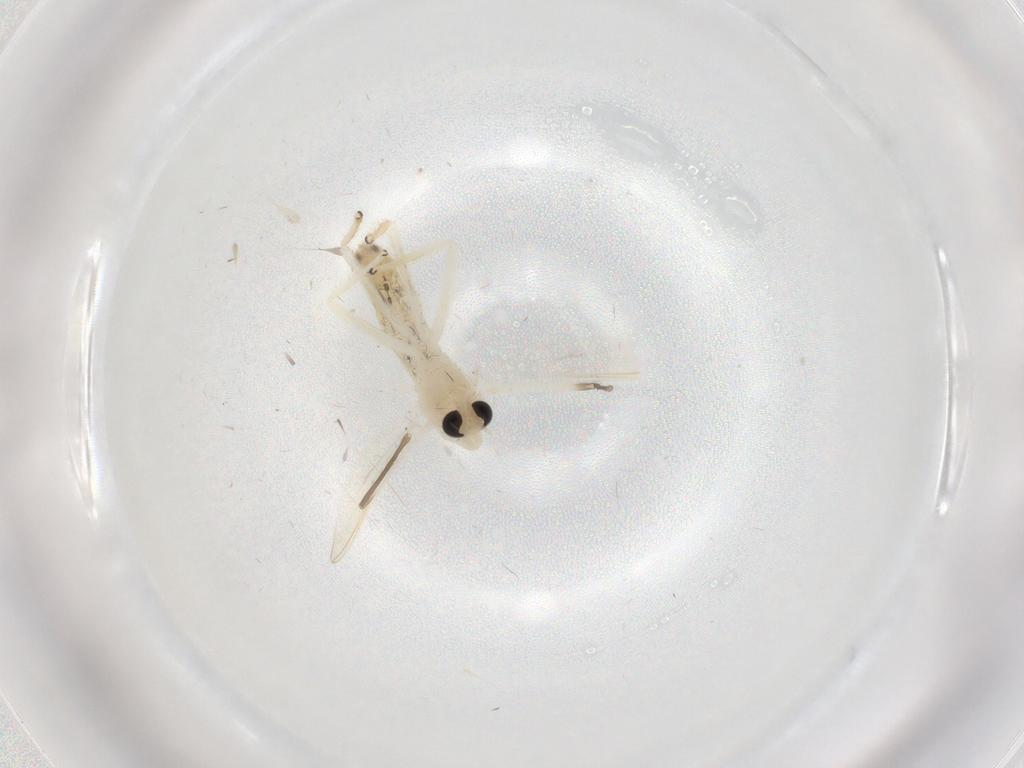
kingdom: Animalia
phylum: Arthropoda
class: Insecta
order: Diptera
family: Chironomidae
